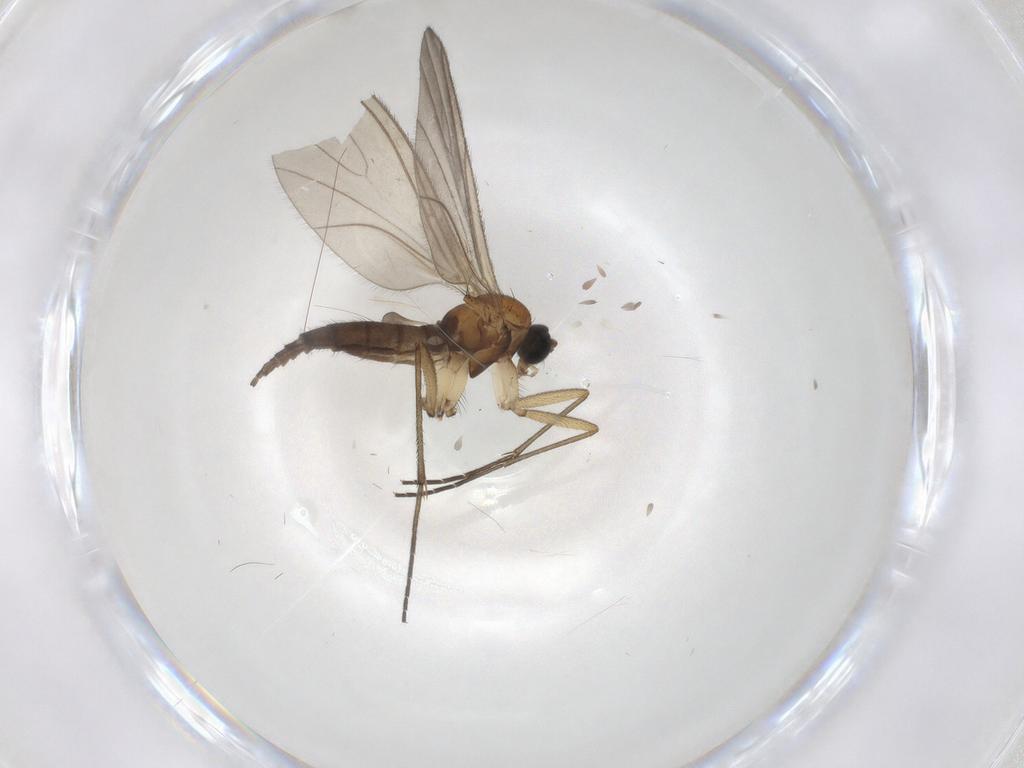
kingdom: Animalia
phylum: Arthropoda
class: Insecta
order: Diptera
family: Sciaridae
